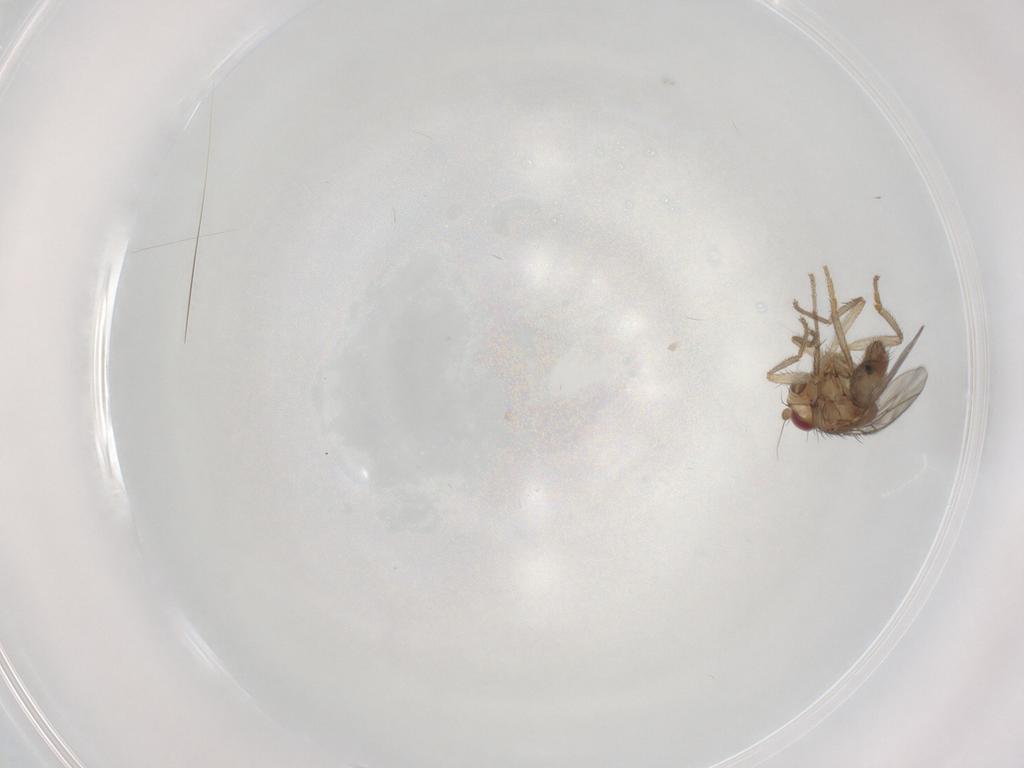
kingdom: Animalia
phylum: Arthropoda
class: Insecta
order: Diptera
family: Sphaeroceridae
